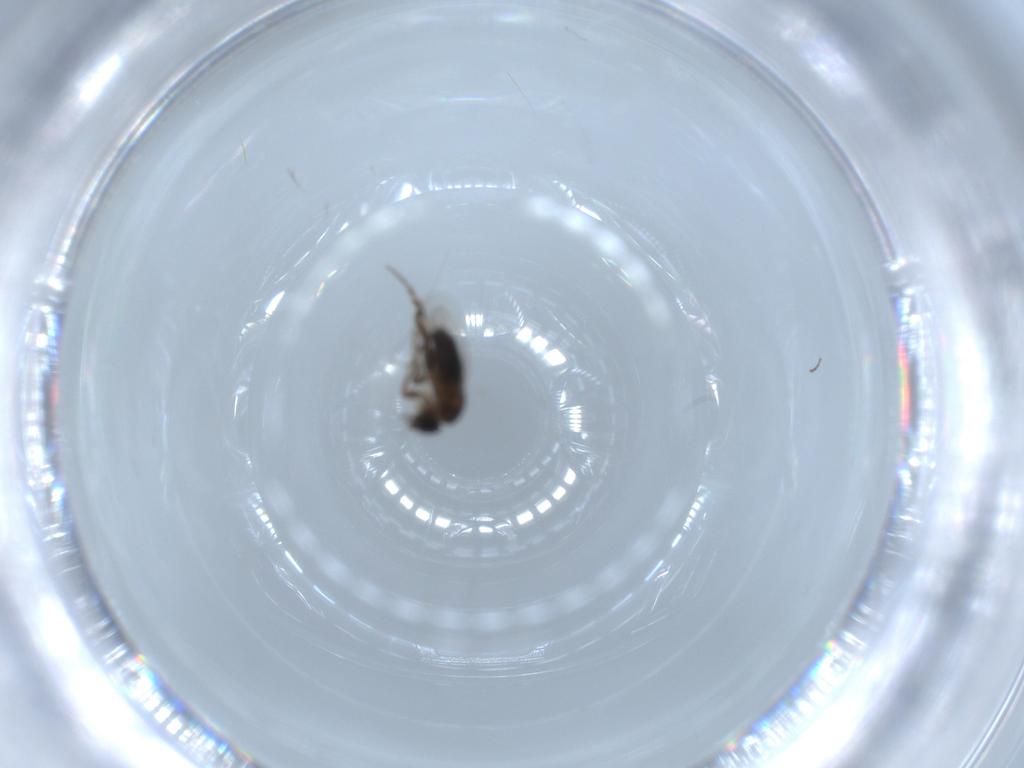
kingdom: Animalia
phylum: Arthropoda
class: Insecta
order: Diptera
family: Phoridae
